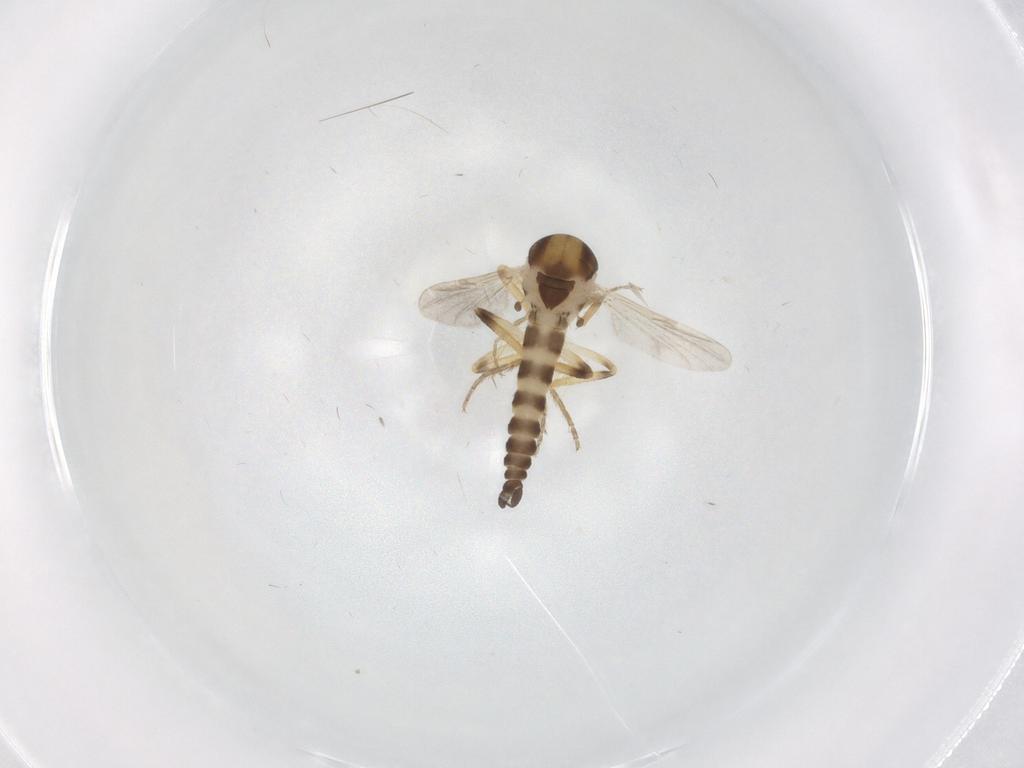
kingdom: Animalia
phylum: Arthropoda
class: Insecta
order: Diptera
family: Ceratopogonidae
